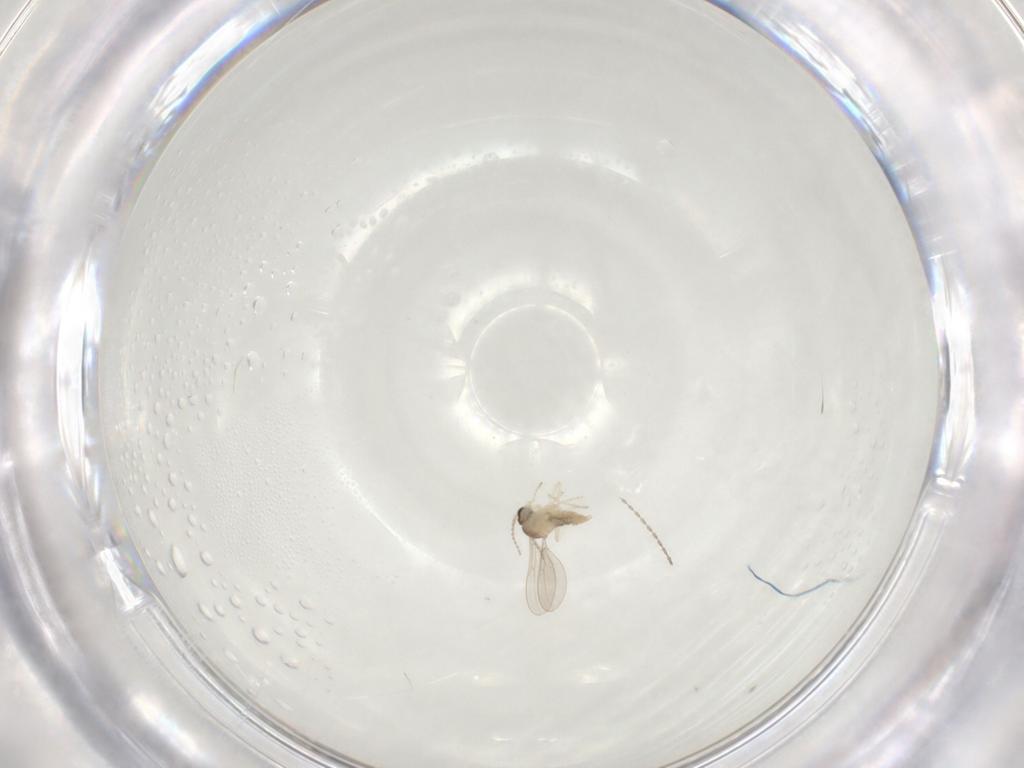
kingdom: Animalia
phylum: Arthropoda
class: Insecta
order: Diptera
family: Cecidomyiidae
